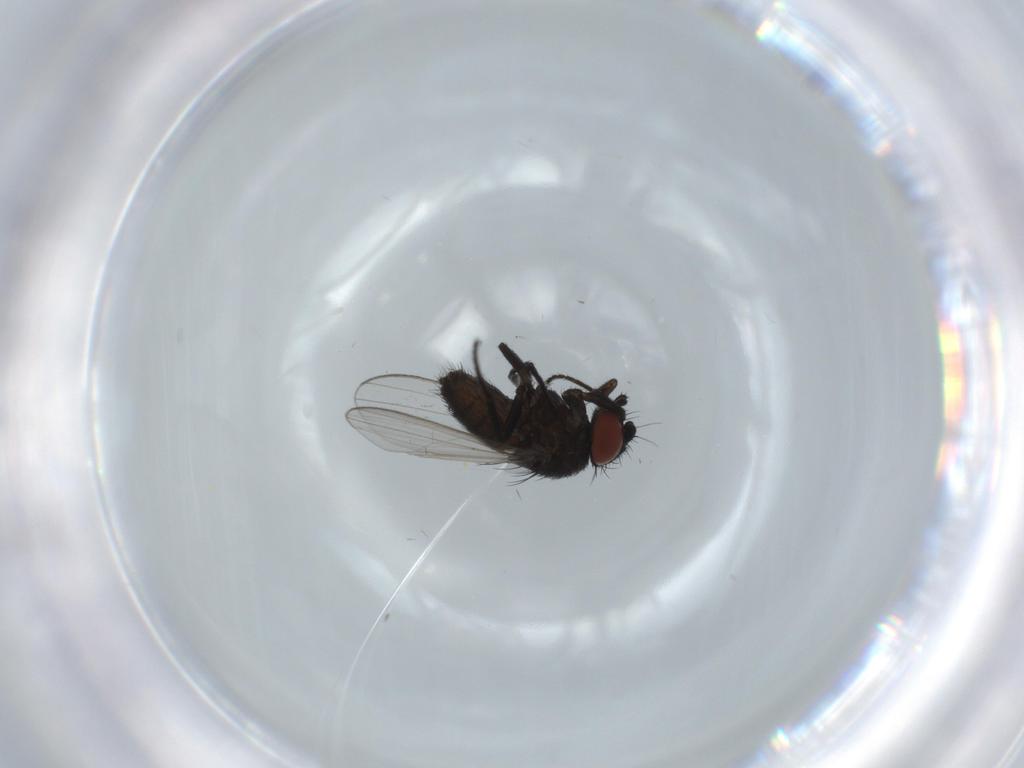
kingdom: Animalia
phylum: Arthropoda
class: Insecta
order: Diptera
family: Milichiidae
